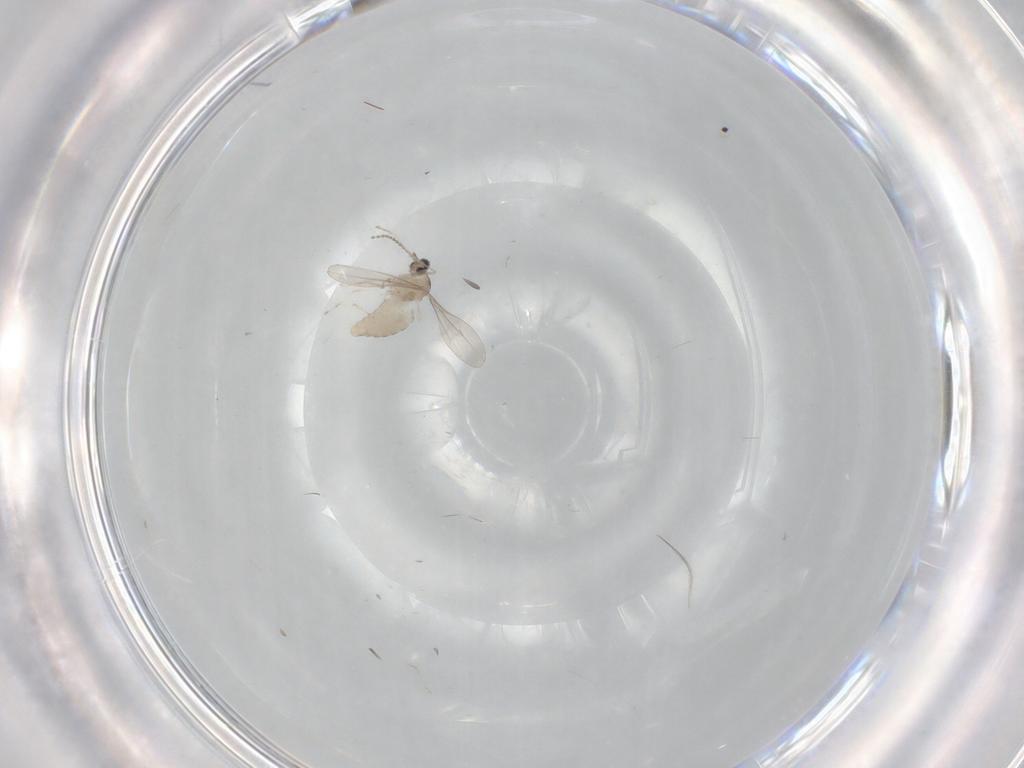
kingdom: Animalia
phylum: Arthropoda
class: Insecta
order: Diptera
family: Cecidomyiidae
